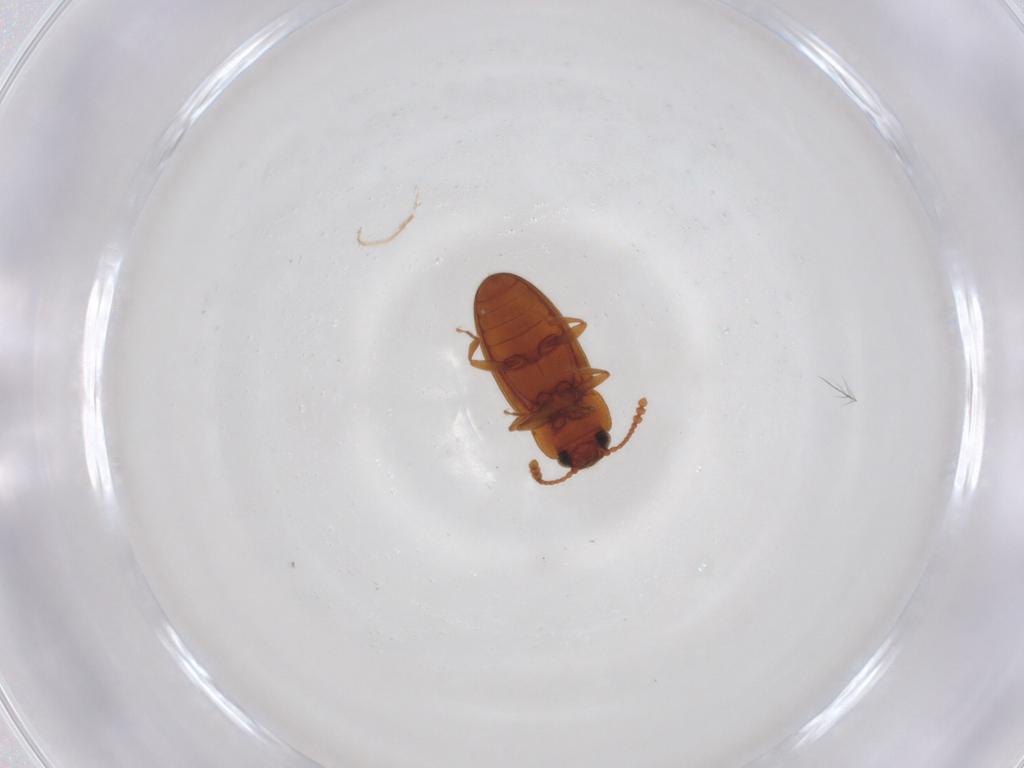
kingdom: Animalia
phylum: Arthropoda
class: Insecta
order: Coleoptera
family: Erotylidae
